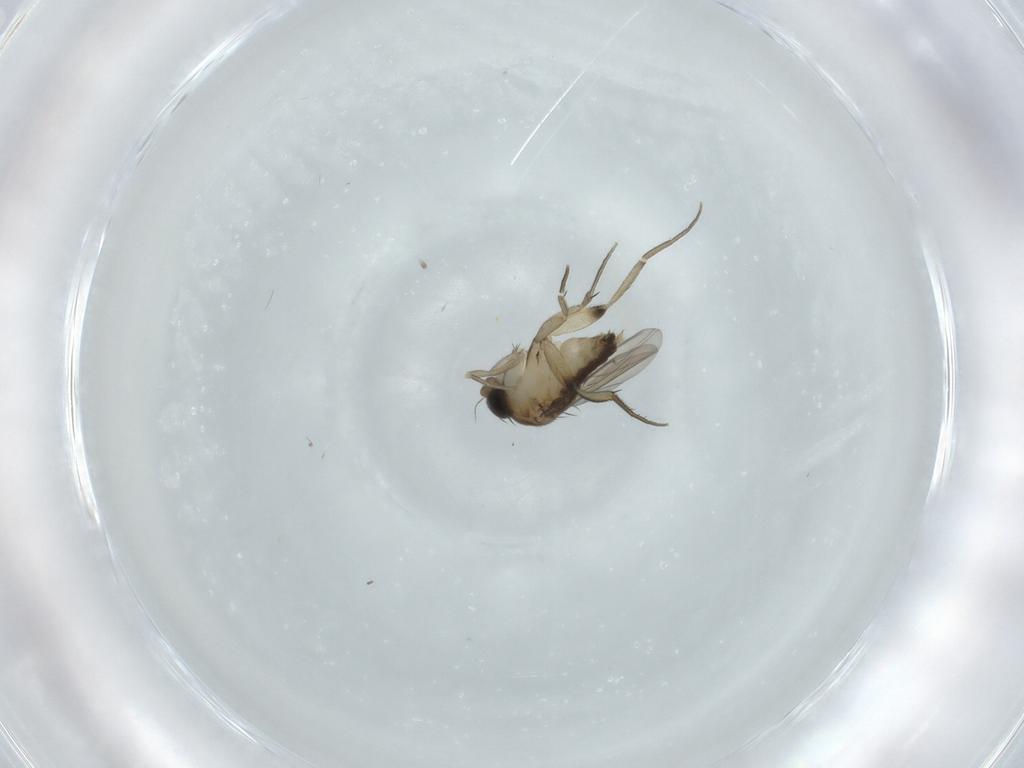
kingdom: Animalia
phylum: Arthropoda
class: Insecta
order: Diptera
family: Phoridae
